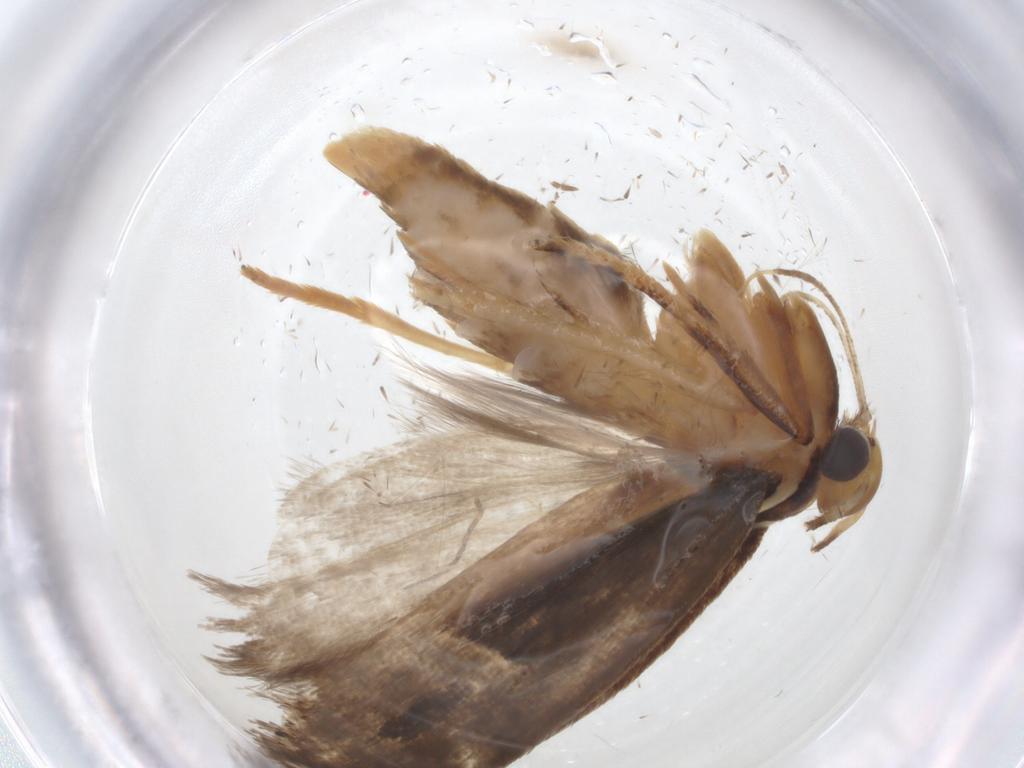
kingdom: Animalia
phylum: Arthropoda
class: Insecta
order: Lepidoptera
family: Gelechiidae
